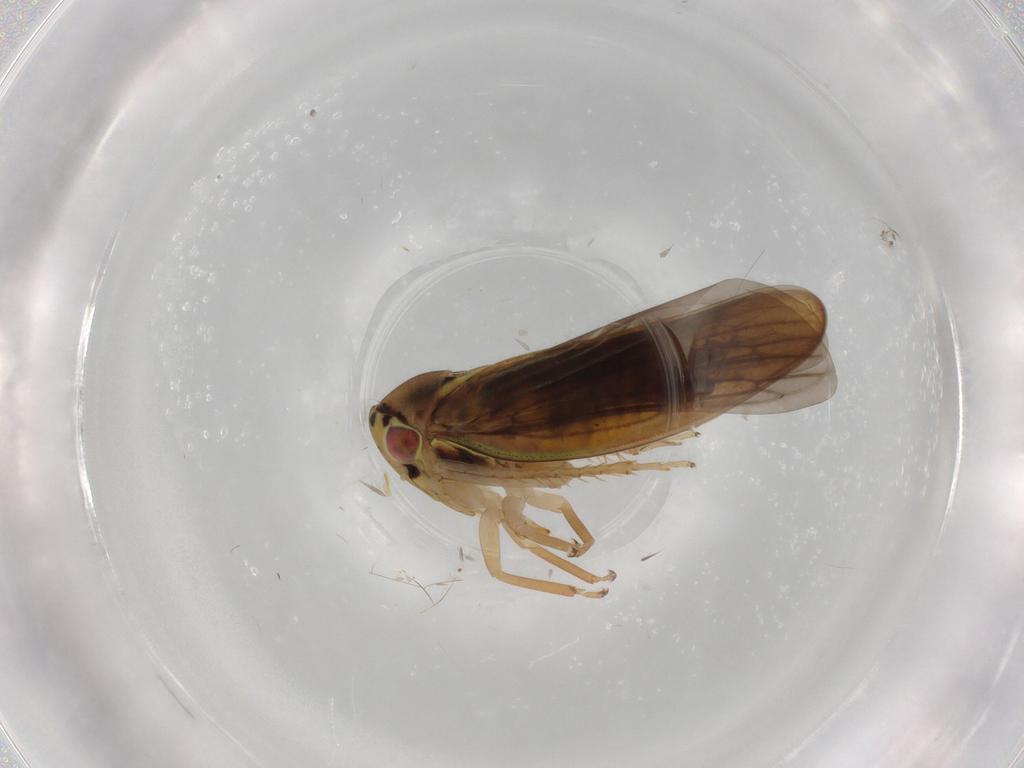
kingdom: Animalia
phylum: Arthropoda
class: Insecta
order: Hemiptera
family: Cicadellidae
